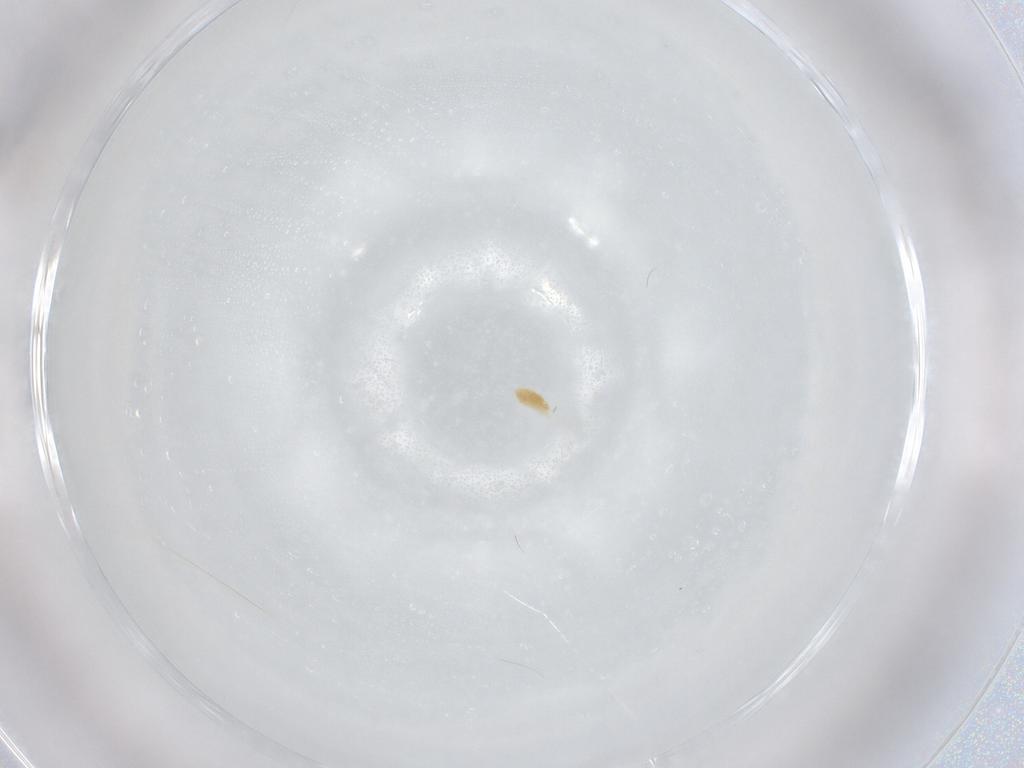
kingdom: Animalia
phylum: Arthropoda
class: Arachnida
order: Trombidiformes
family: Eupodidae
